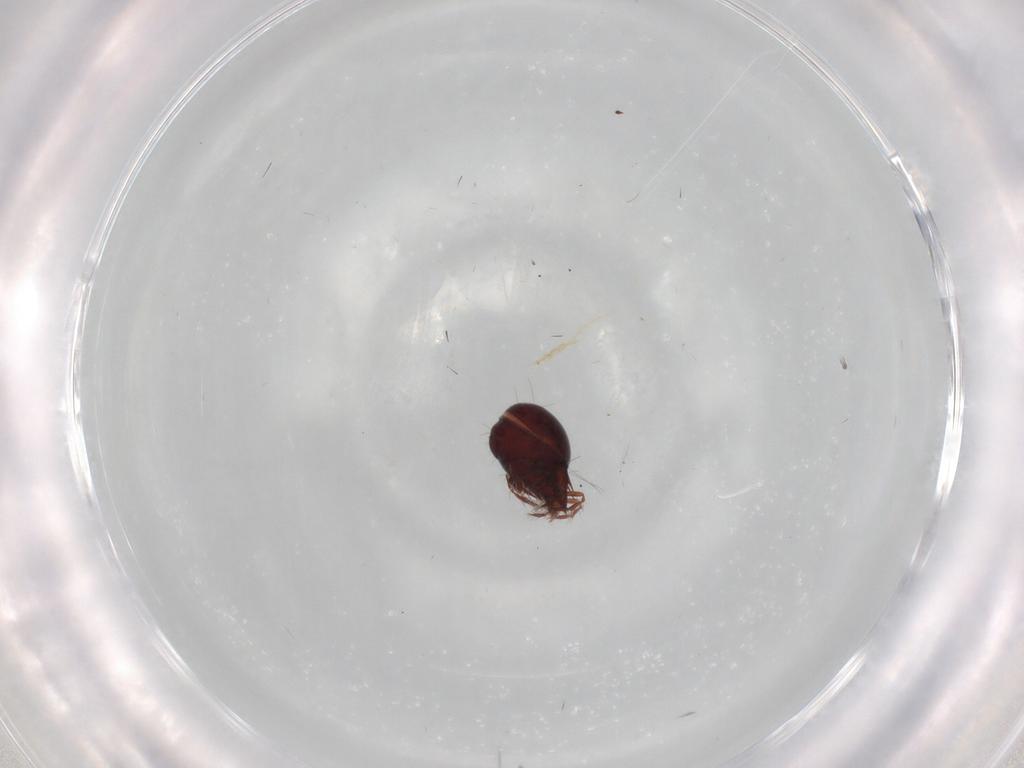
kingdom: Animalia
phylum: Arthropoda
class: Arachnida
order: Sarcoptiformes
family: Ceratoppiidae
